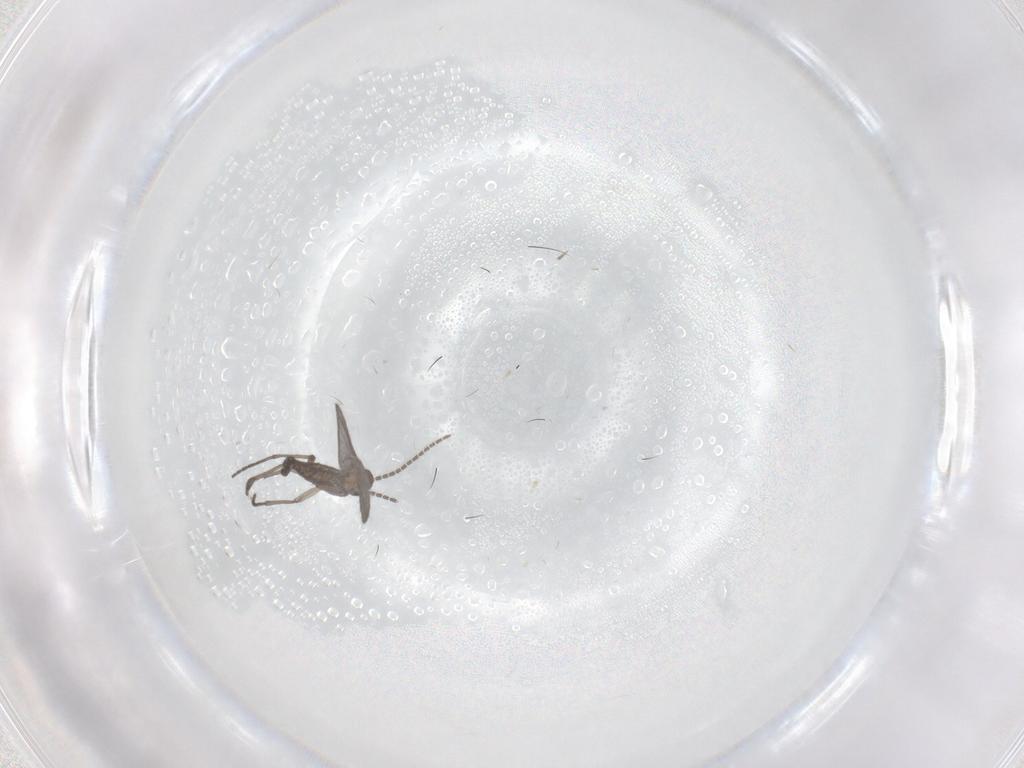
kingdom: Animalia
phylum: Arthropoda
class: Insecta
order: Diptera
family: Sciaridae
